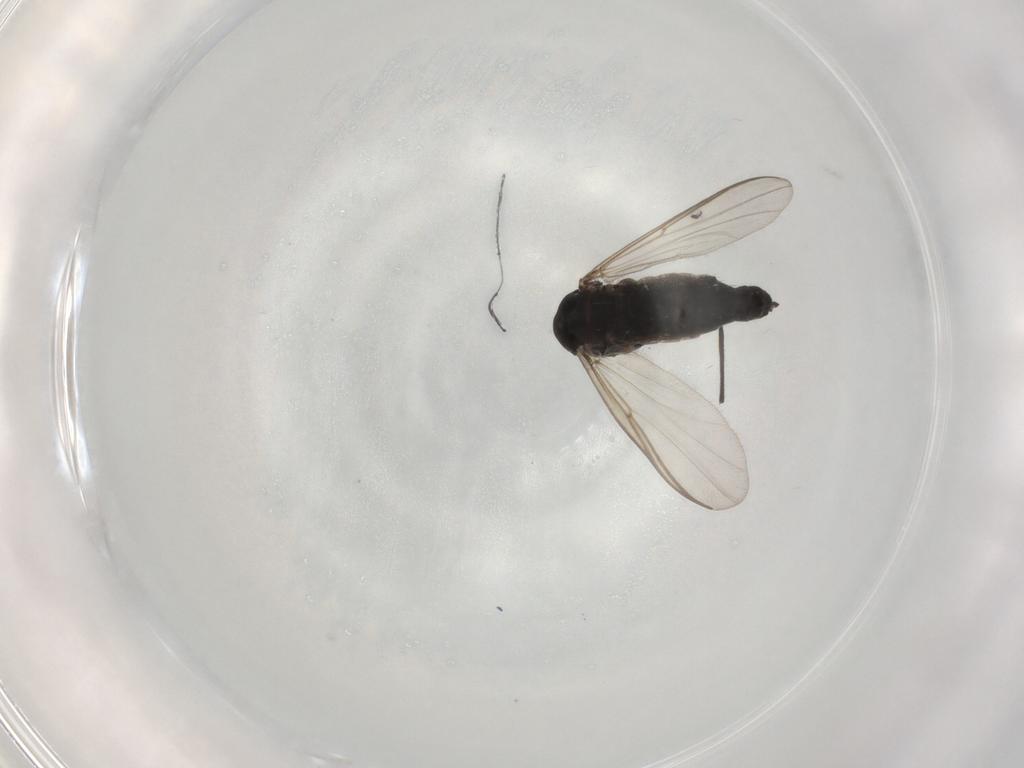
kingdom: Animalia
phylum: Arthropoda
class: Insecta
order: Diptera
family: Chironomidae
